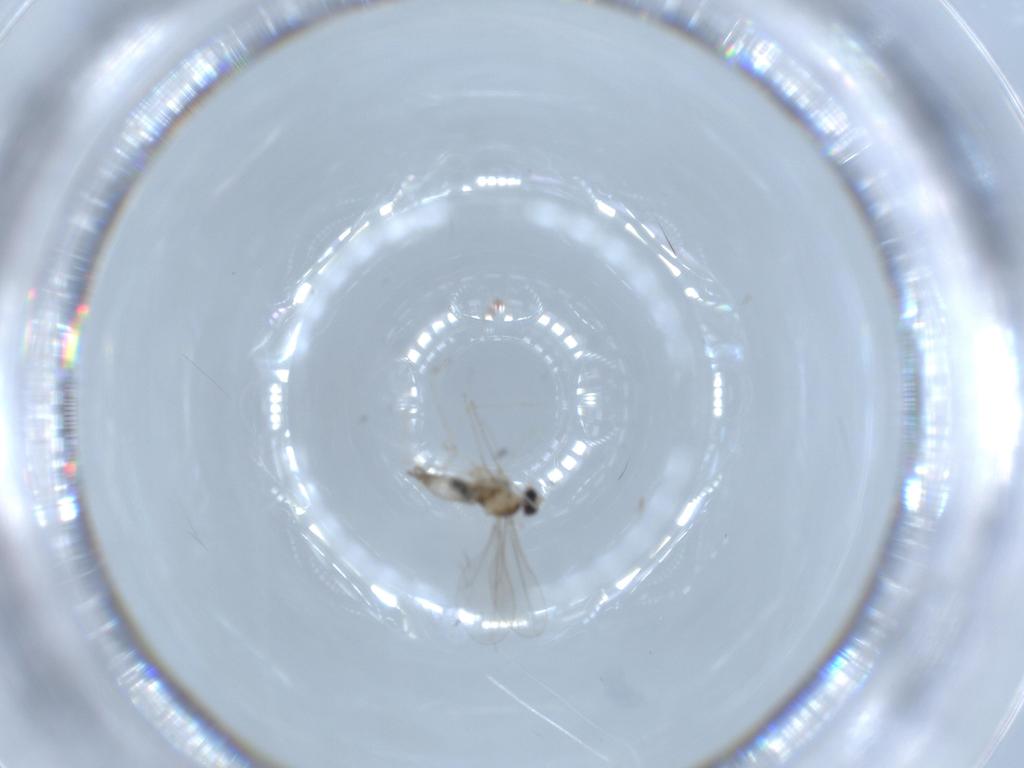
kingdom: Animalia
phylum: Arthropoda
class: Insecta
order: Diptera
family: Cecidomyiidae
